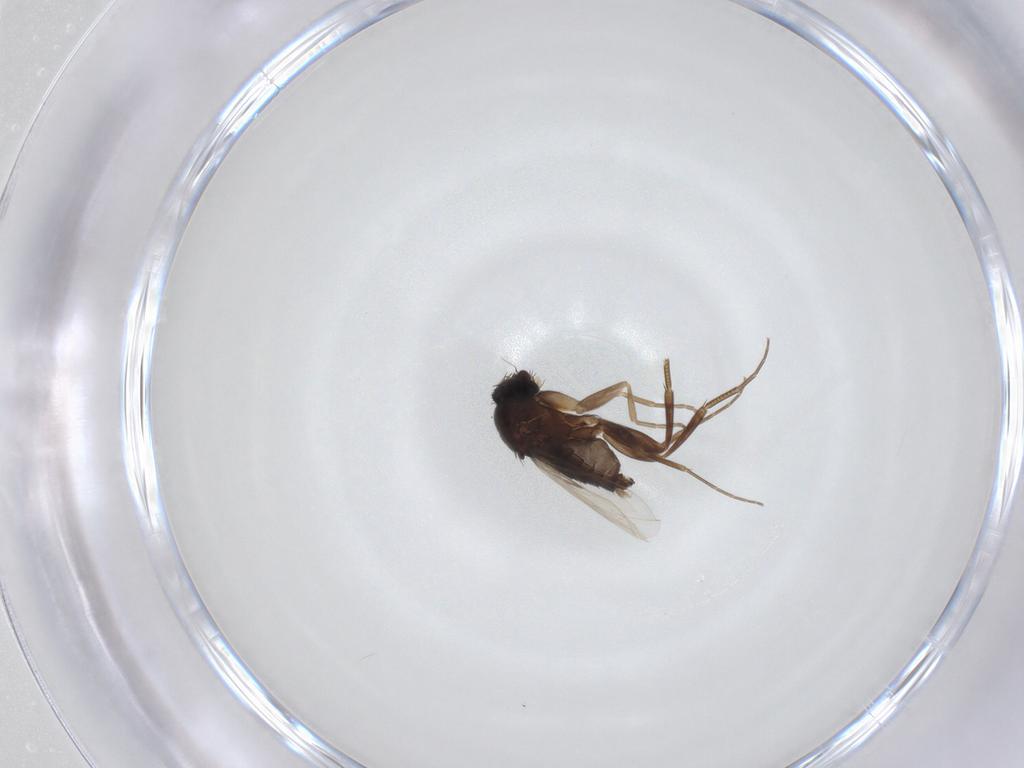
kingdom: Animalia
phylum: Arthropoda
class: Insecta
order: Diptera
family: Phoridae
